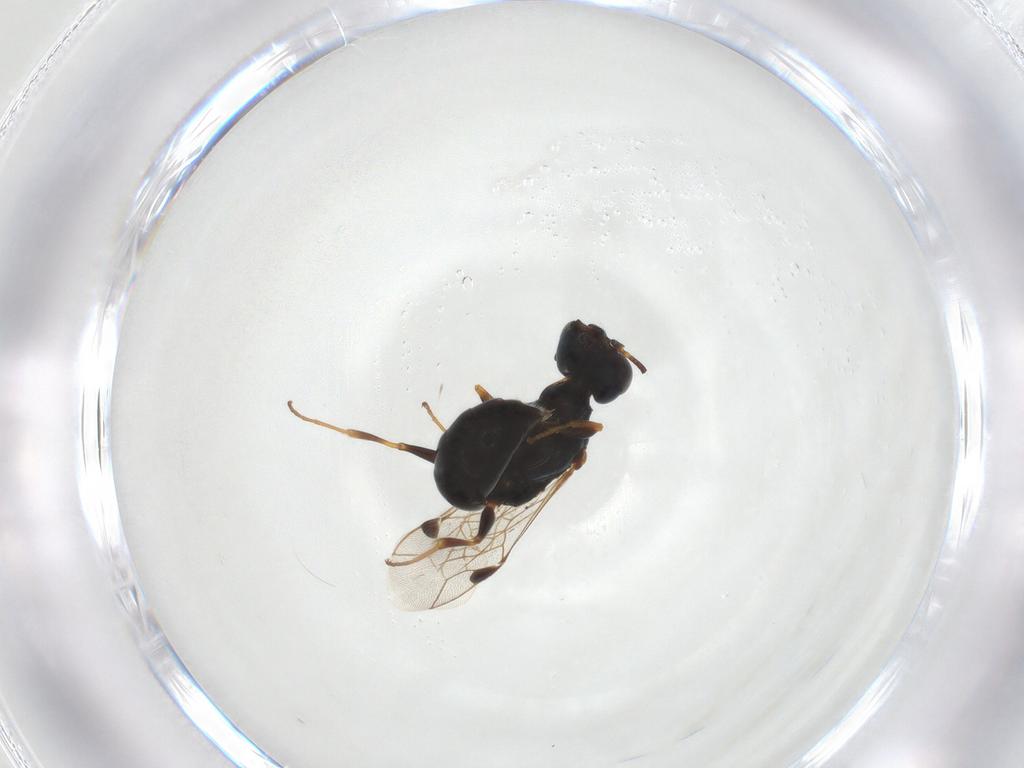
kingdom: Animalia
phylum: Arthropoda
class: Insecta
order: Hymenoptera
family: Crabronidae
